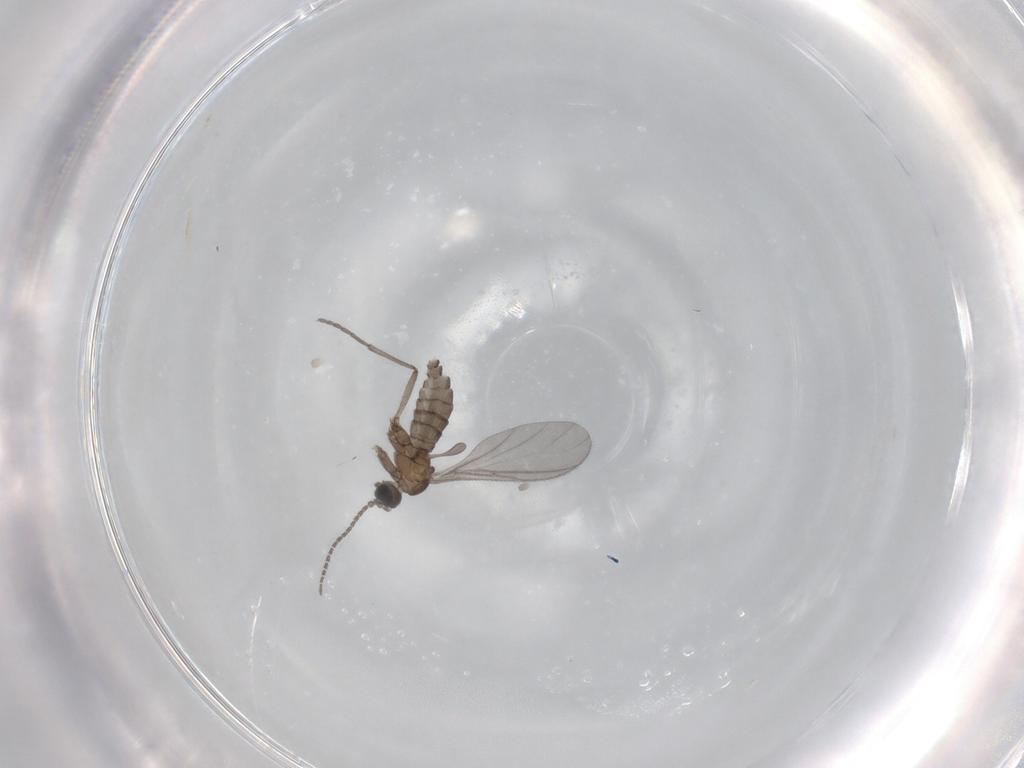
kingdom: Animalia
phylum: Arthropoda
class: Insecta
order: Diptera
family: Sciaridae
